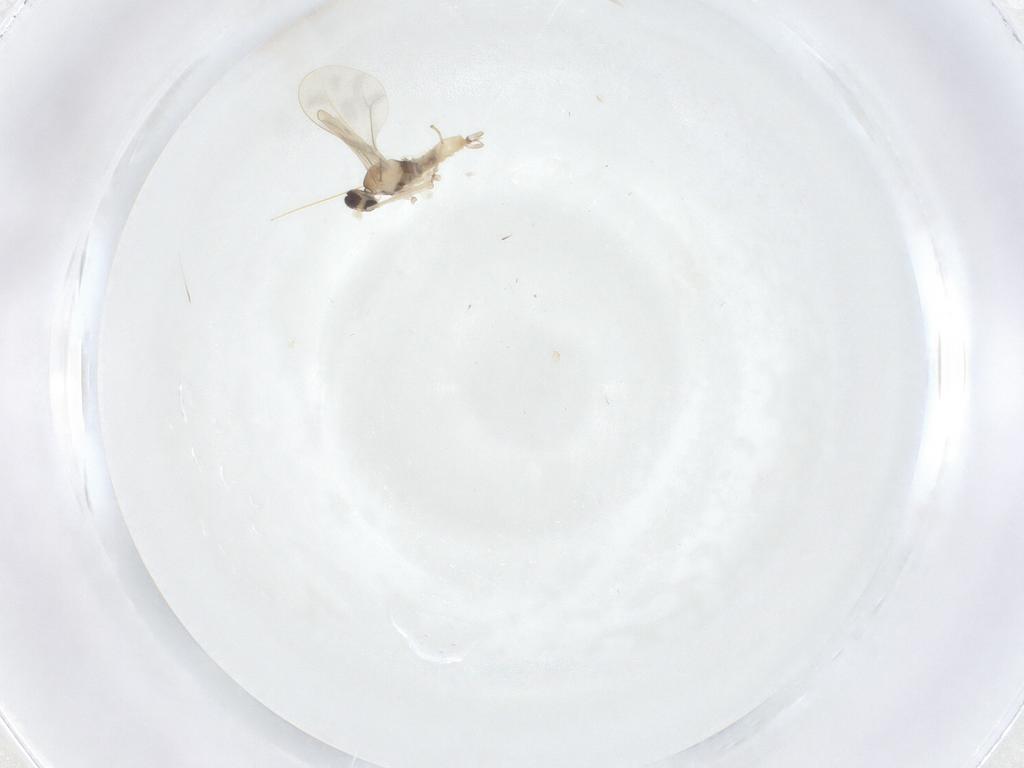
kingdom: Animalia
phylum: Arthropoda
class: Insecta
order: Diptera
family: Cecidomyiidae
